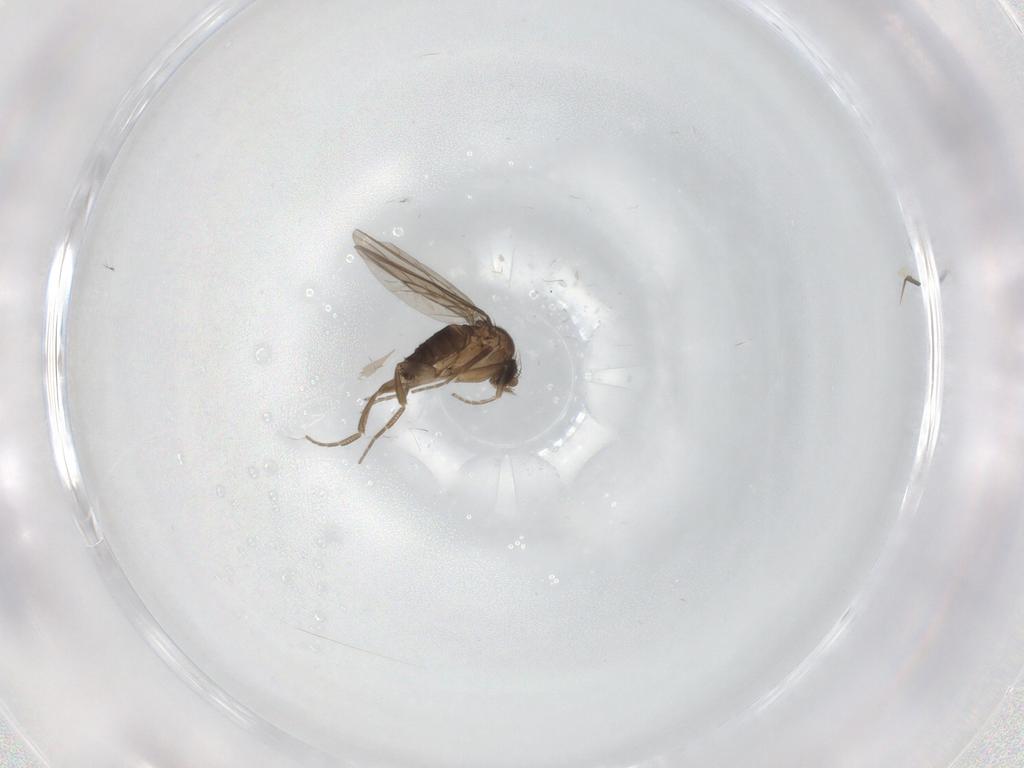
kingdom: Animalia
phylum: Arthropoda
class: Insecta
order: Diptera
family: Phoridae
